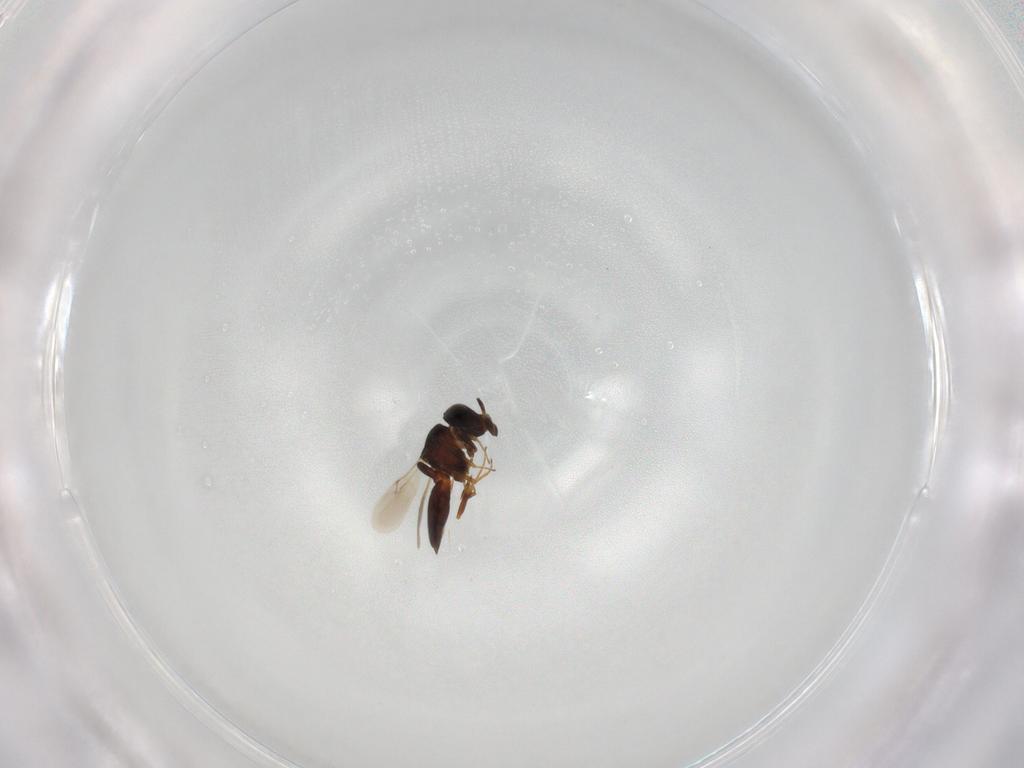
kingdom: Animalia
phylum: Arthropoda
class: Insecta
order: Hymenoptera
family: Scelionidae
